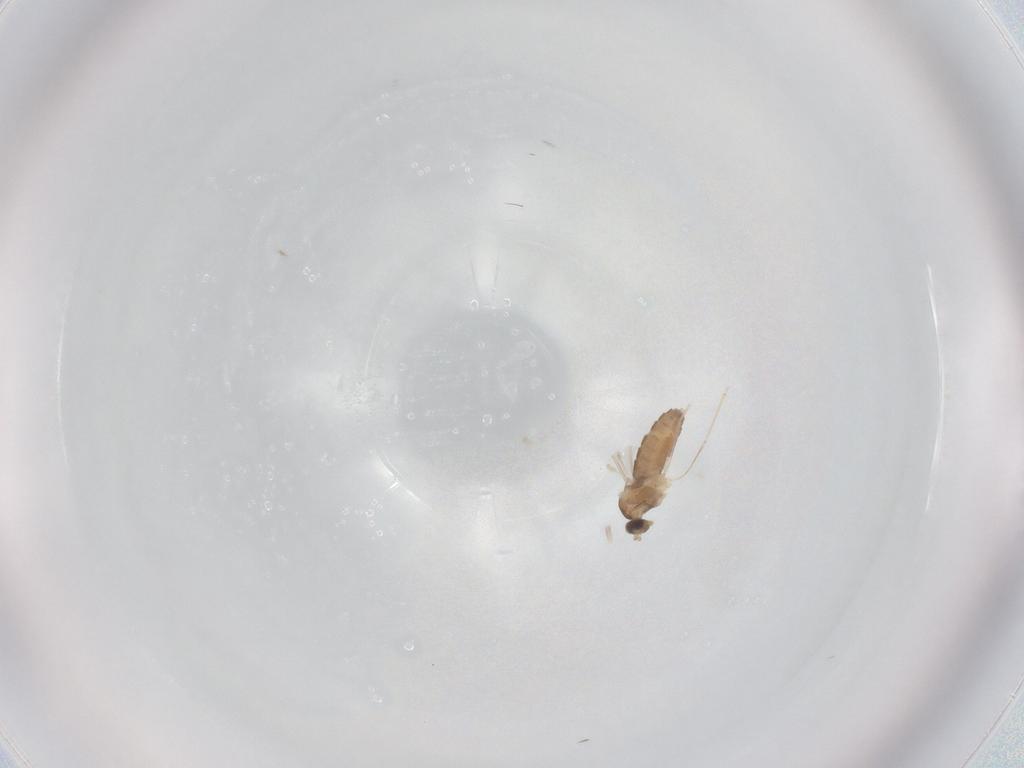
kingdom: Animalia
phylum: Arthropoda
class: Insecta
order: Diptera
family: Cecidomyiidae
